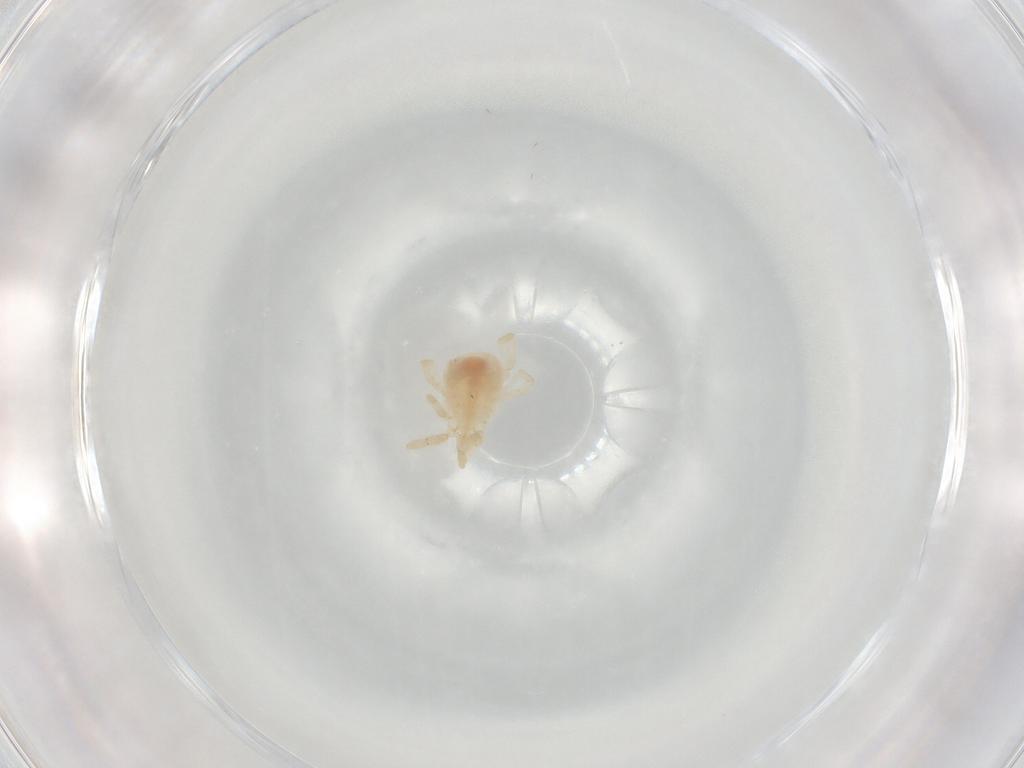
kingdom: Animalia
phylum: Arthropoda
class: Arachnida
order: Trombidiformes
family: Erythraeidae
